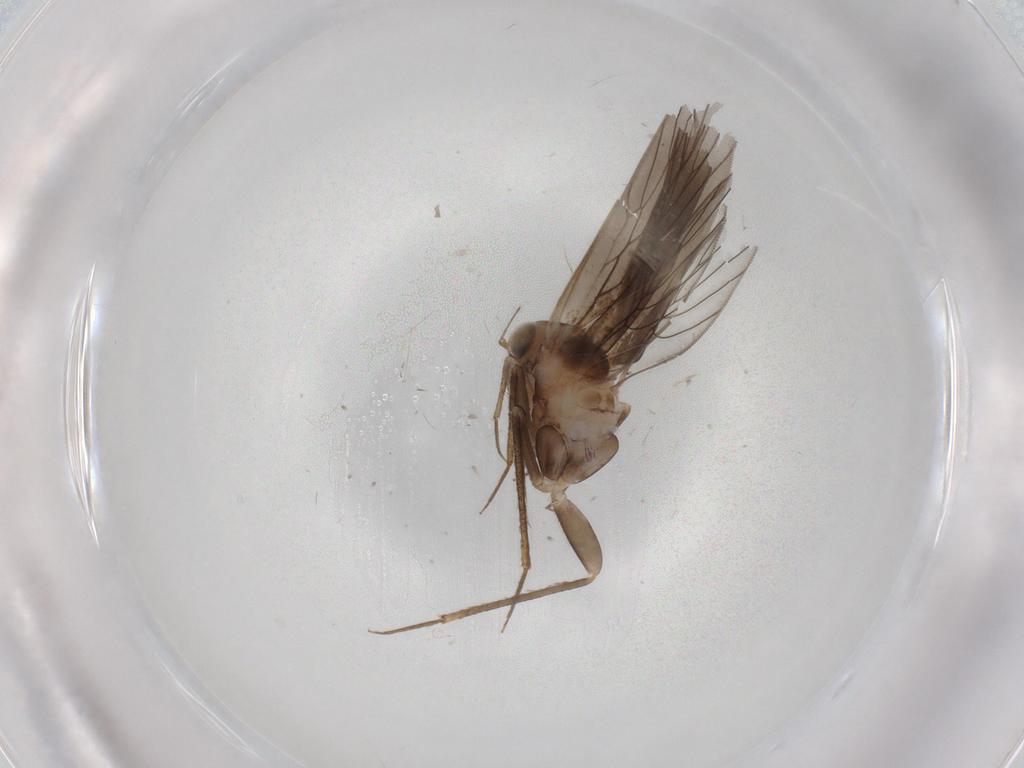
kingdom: Animalia
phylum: Arthropoda
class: Insecta
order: Psocodea
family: Lepidopsocidae
